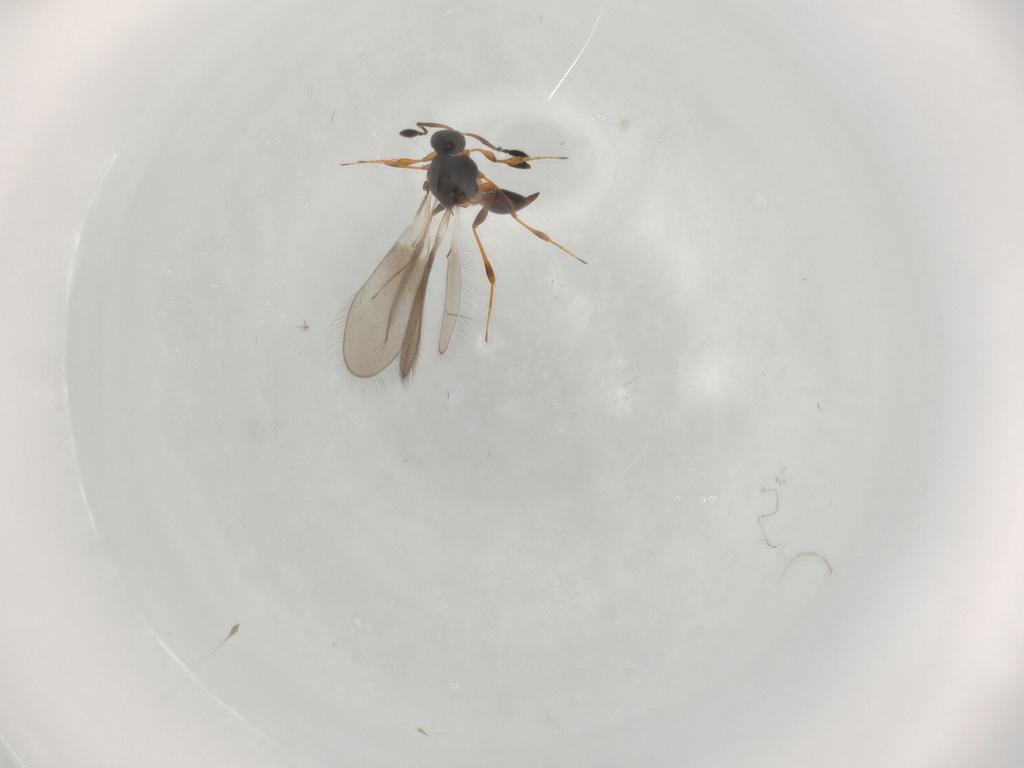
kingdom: Animalia
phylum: Arthropoda
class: Insecta
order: Hymenoptera
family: Platygastridae
